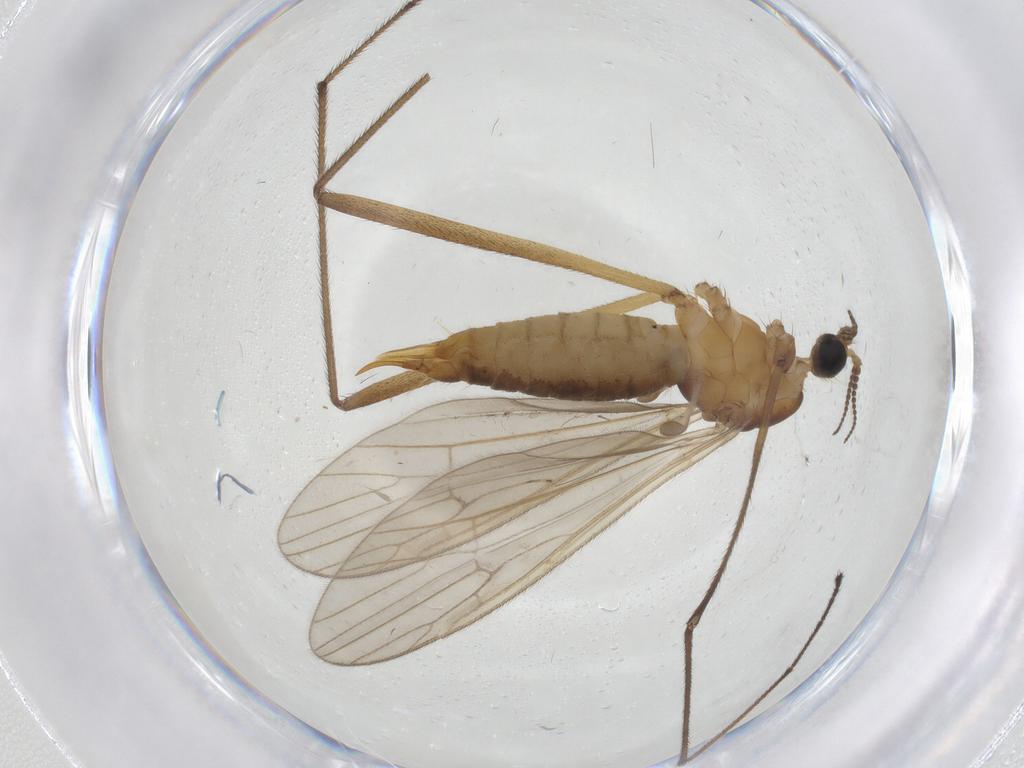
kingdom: Animalia
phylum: Arthropoda
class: Insecta
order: Diptera
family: Limoniidae
